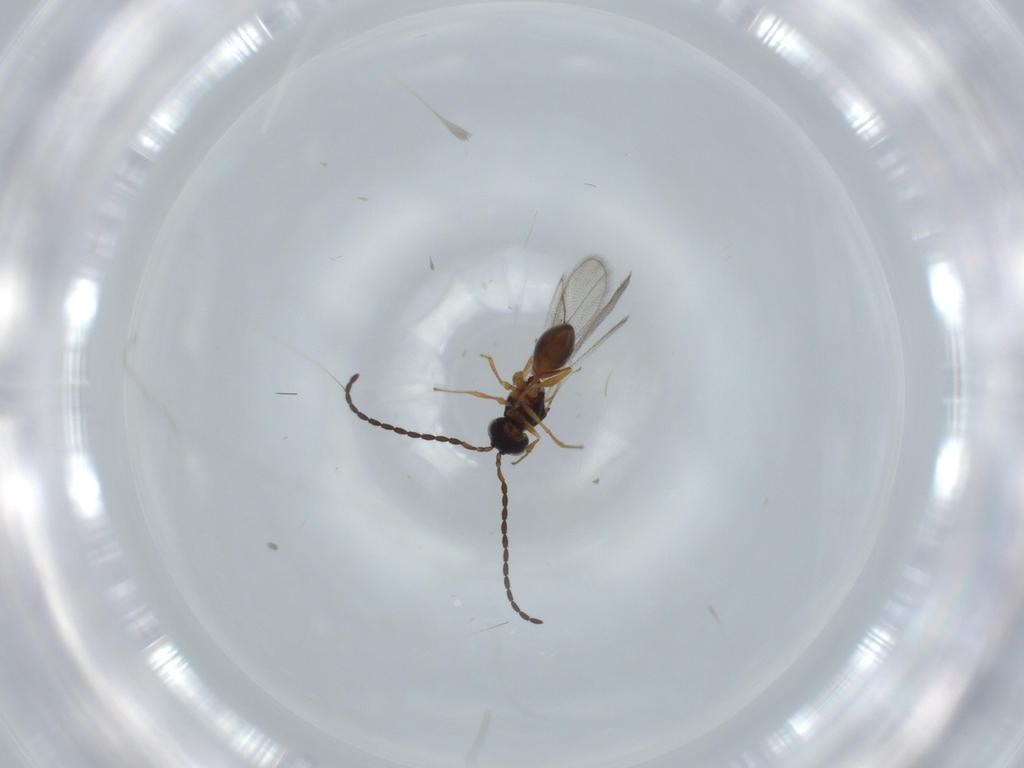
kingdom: Animalia
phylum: Arthropoda
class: Insecta
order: Hymenoptera
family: Figitidae
